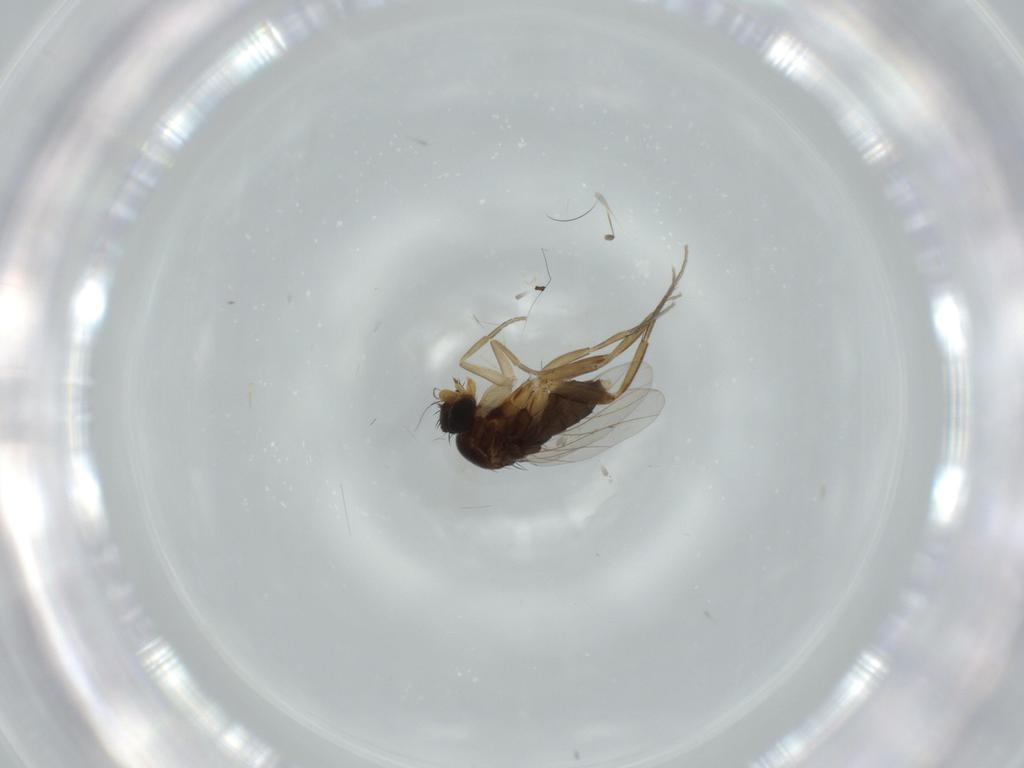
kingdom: Animalia
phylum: Arthropoda
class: Insecta
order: Diptera
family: Phoridae
